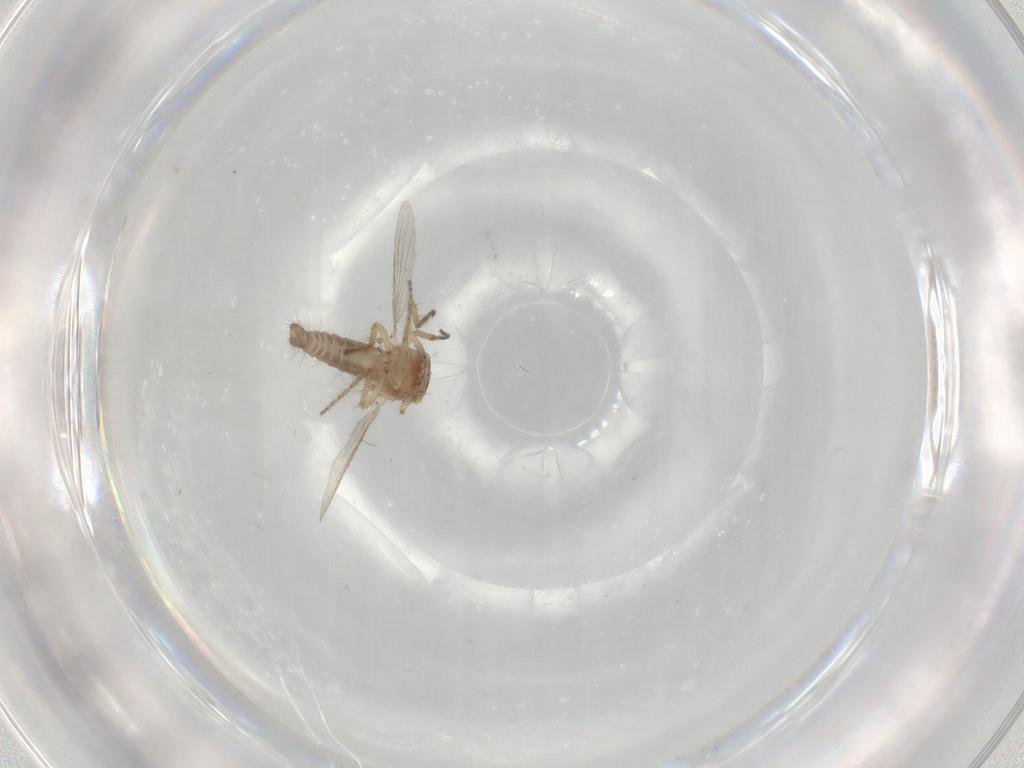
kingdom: Animalia
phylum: Arthropoda
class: Insecta
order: Diptera
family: Ceratopogonidae
